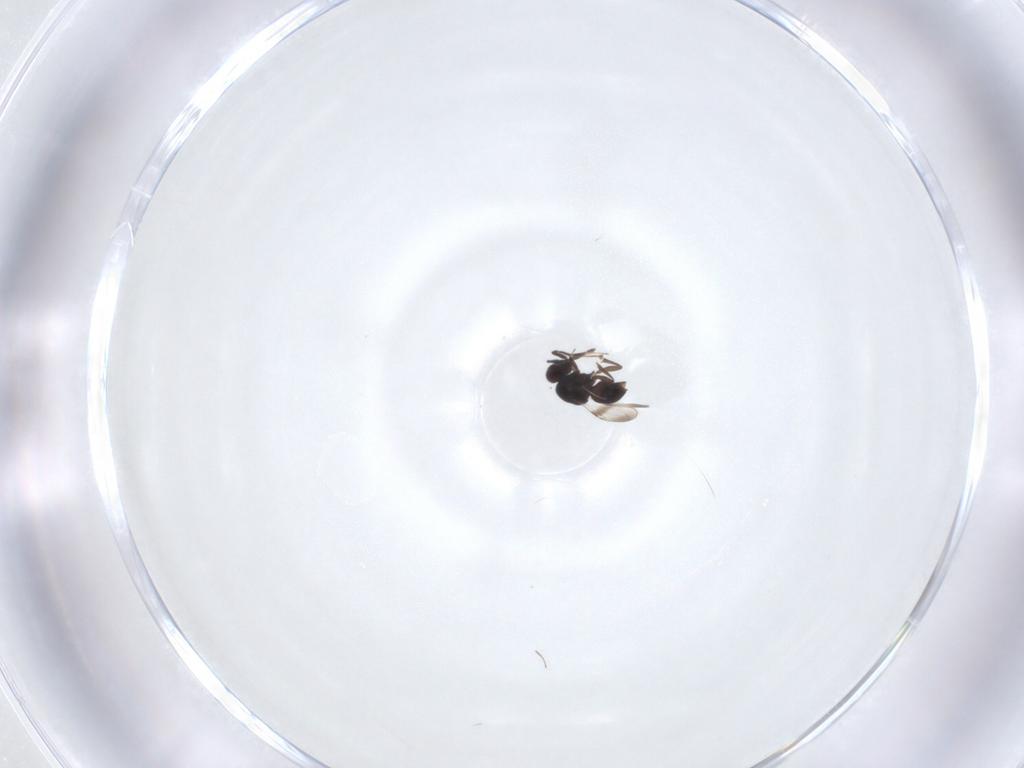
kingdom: Animalia
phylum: Arthropoda
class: Insecta
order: Hymenoptera
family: Ceraphronidae
